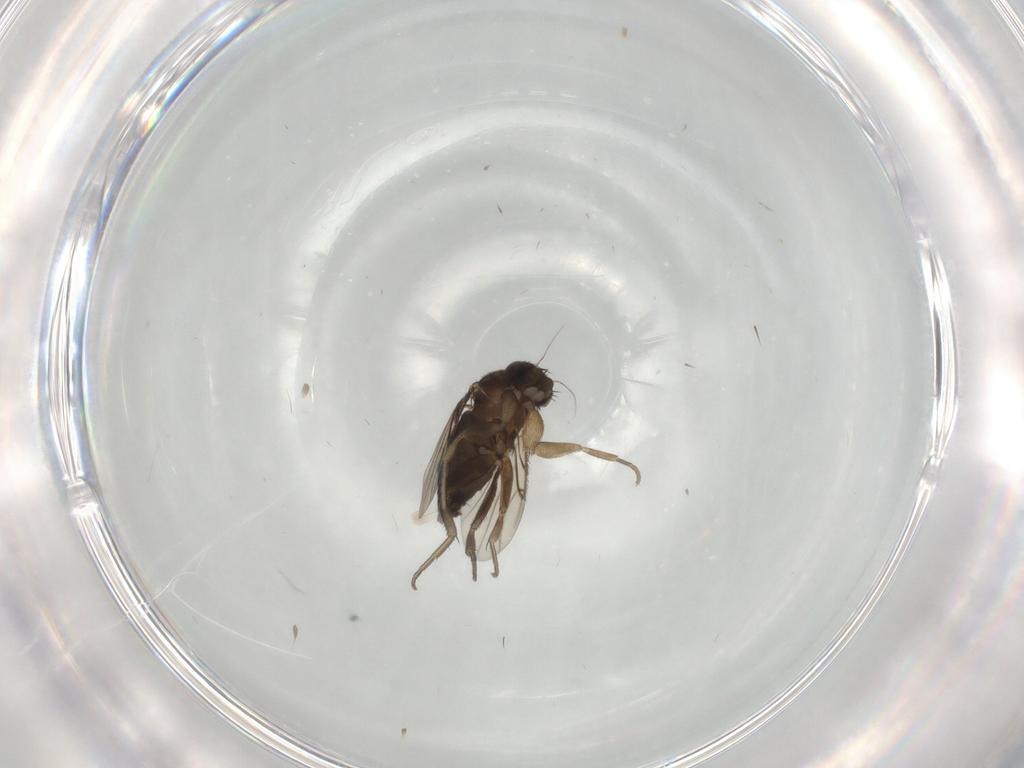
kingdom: Animalia
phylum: Arthropoda
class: Insecta
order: Diptera
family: Phoridae
